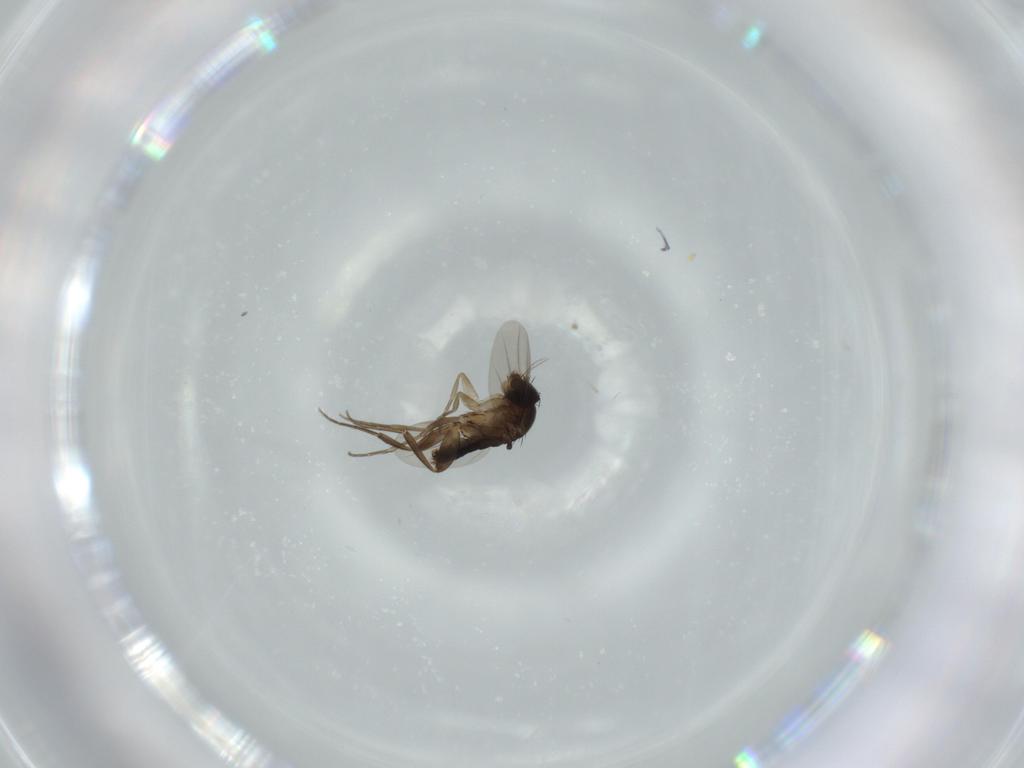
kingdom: Animalia
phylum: Arthropoda
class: Insecta
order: Diptera
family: Phoridae
